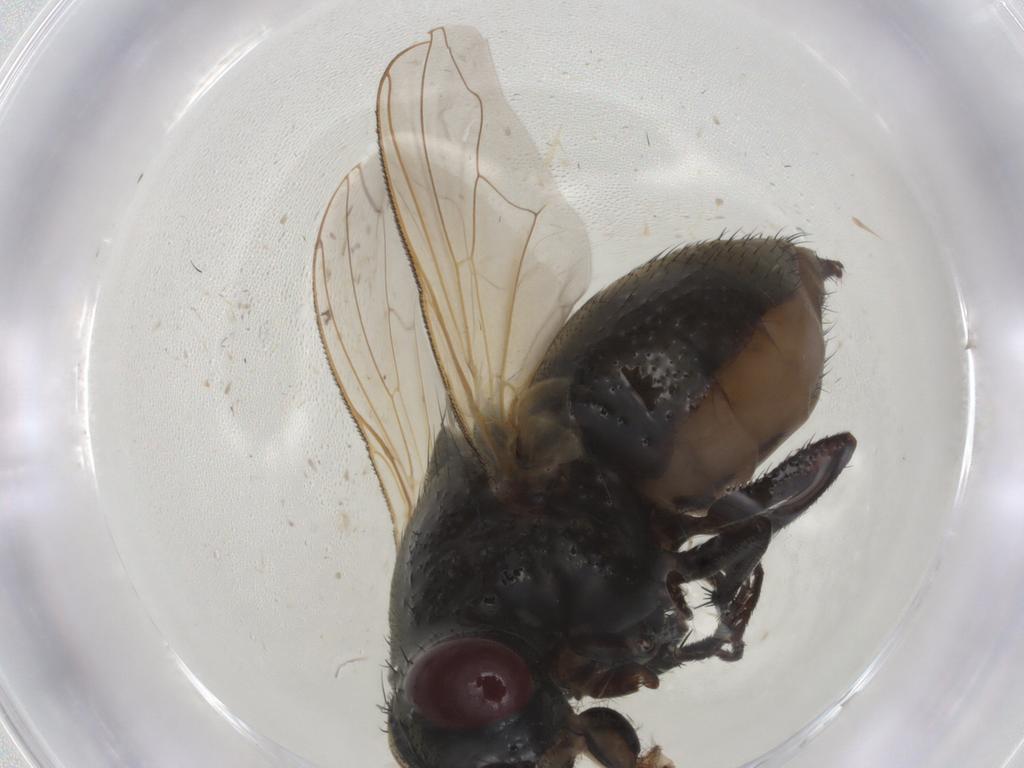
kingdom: Animalia
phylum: Arthropoda
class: Insecta
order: Diptera
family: Muscidae
